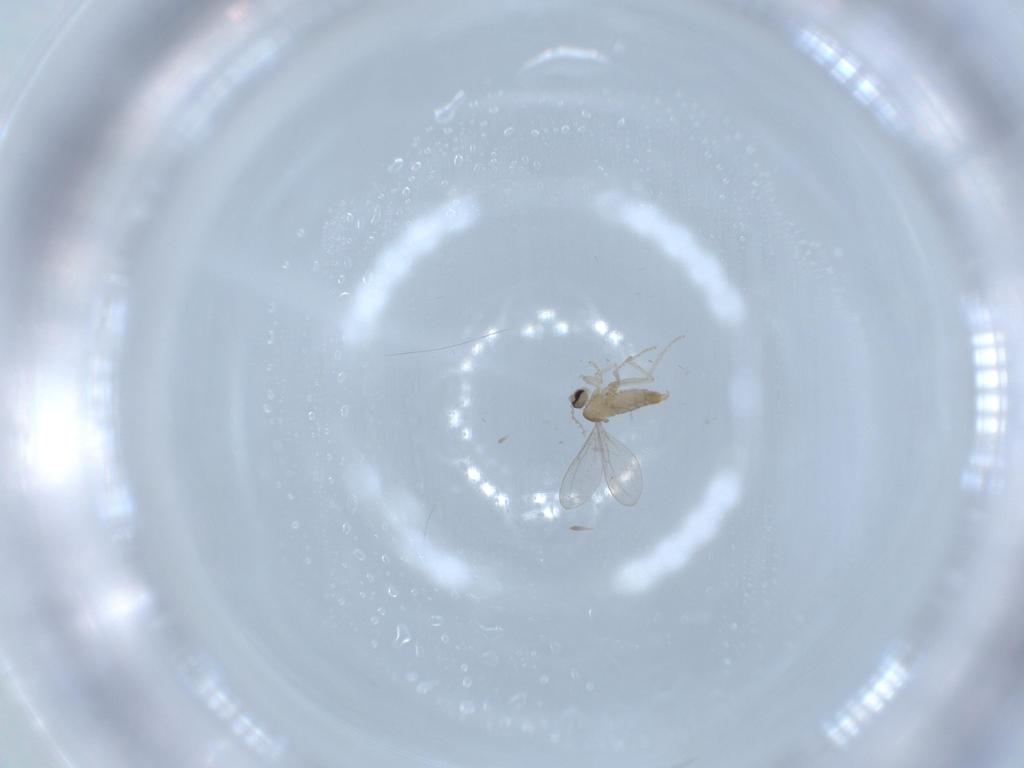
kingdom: Animalia
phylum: Arthropoda
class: Insecta
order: Diptera
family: Cecidomyiidae
